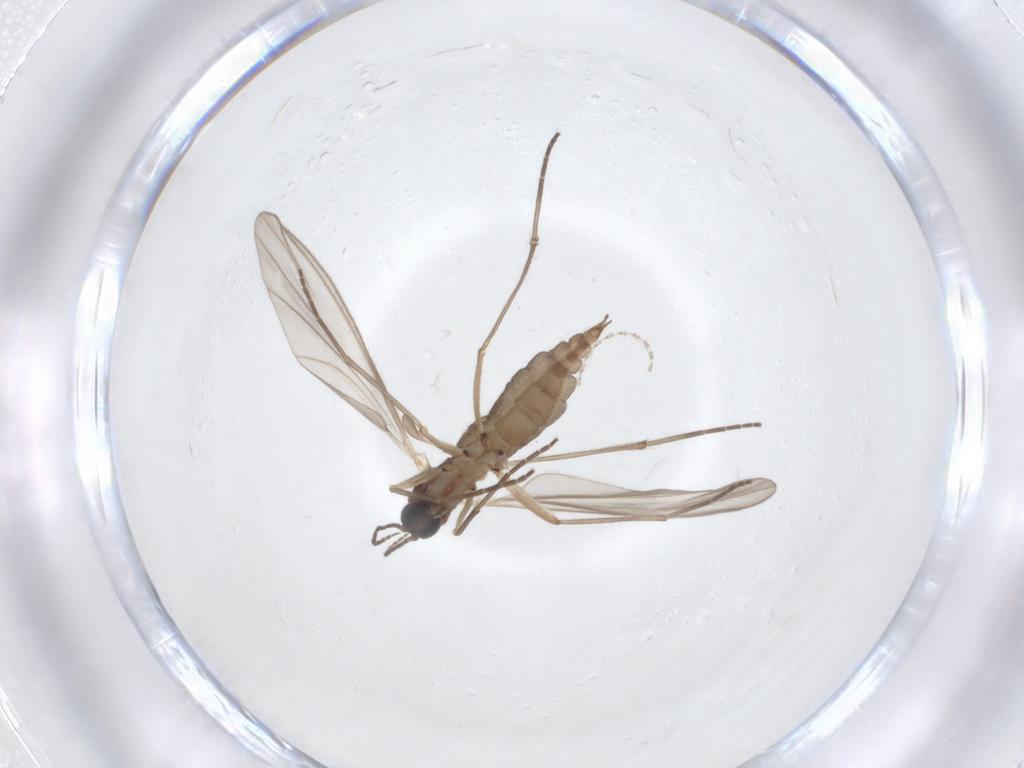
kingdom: Animalia
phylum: Arthropoda
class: Insecta
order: Diptera
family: Sciaridae
